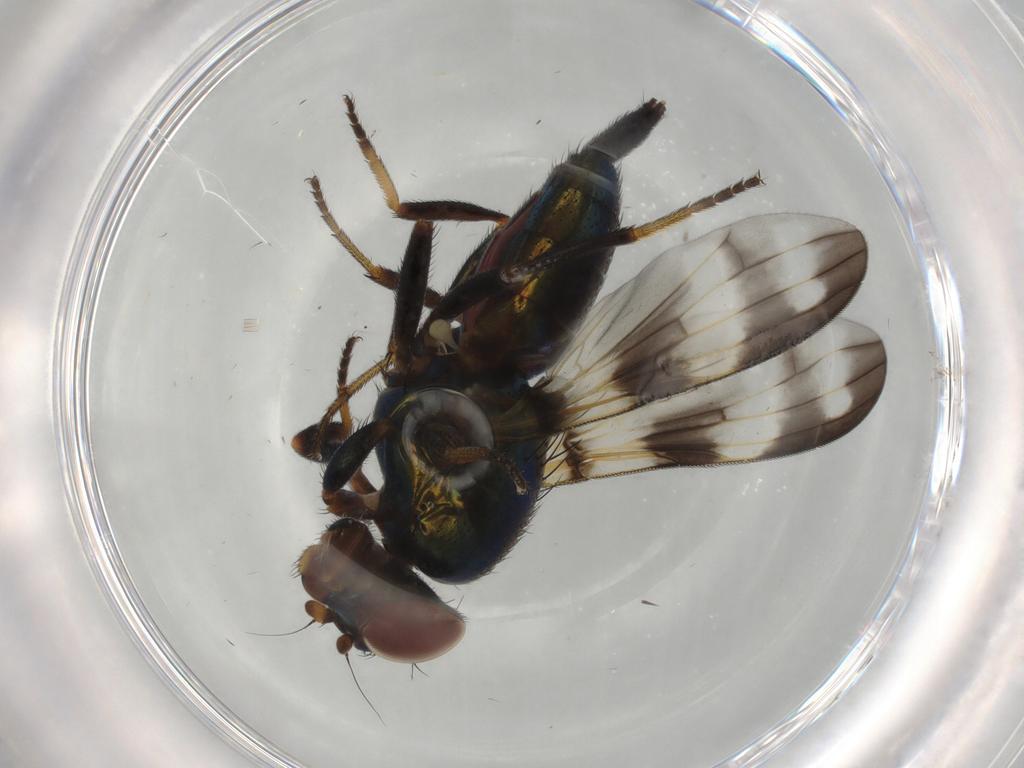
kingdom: Animalia
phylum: Arthropoda
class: Insecta
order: Diptera
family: Ulidiidae
